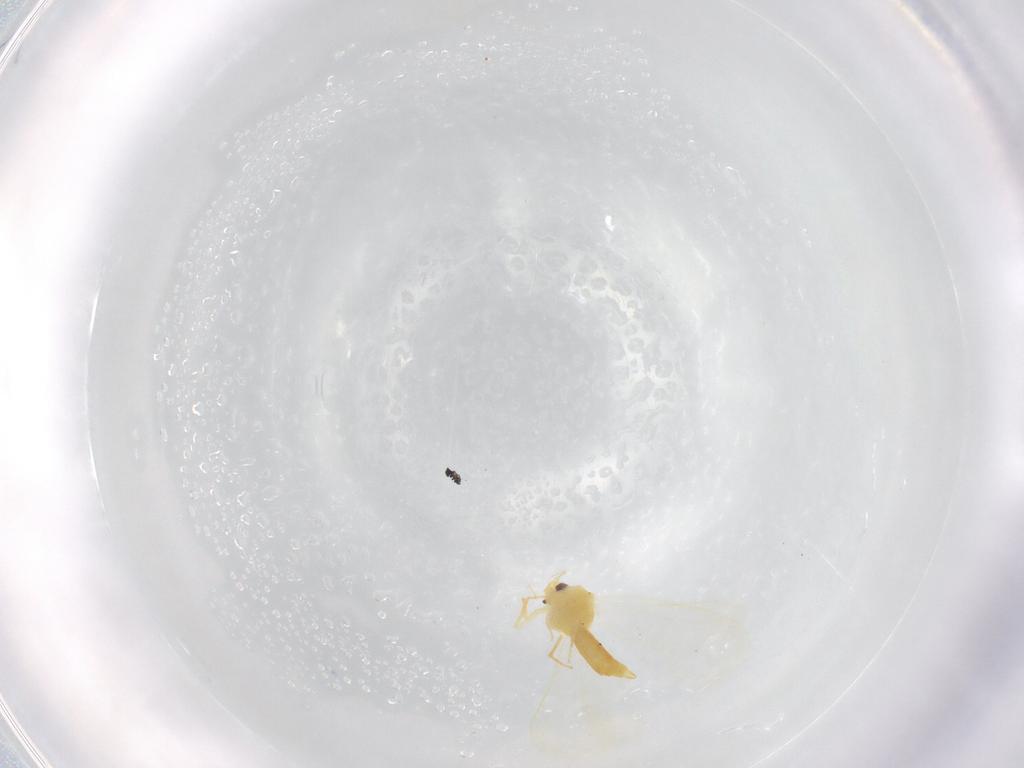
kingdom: Animalia
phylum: Arthropoda
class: Insecta
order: Hemiptera
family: Aleyrodidae
